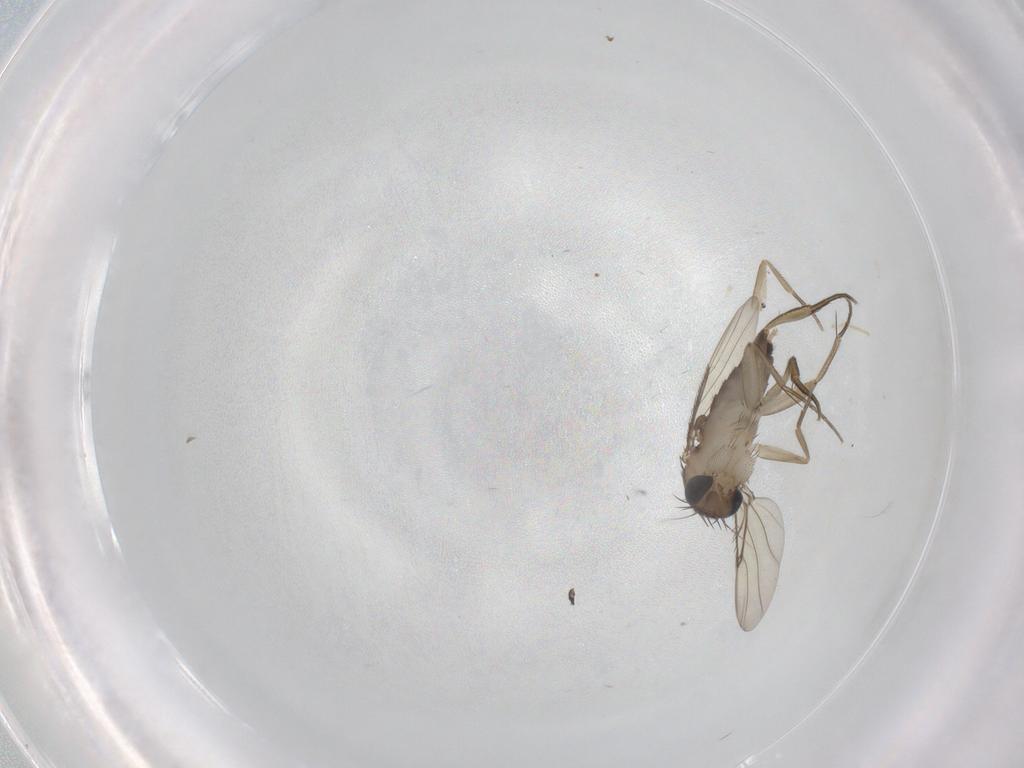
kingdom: Animalia
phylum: Arthropoda
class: Insecta
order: Diptera
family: Phoridae
